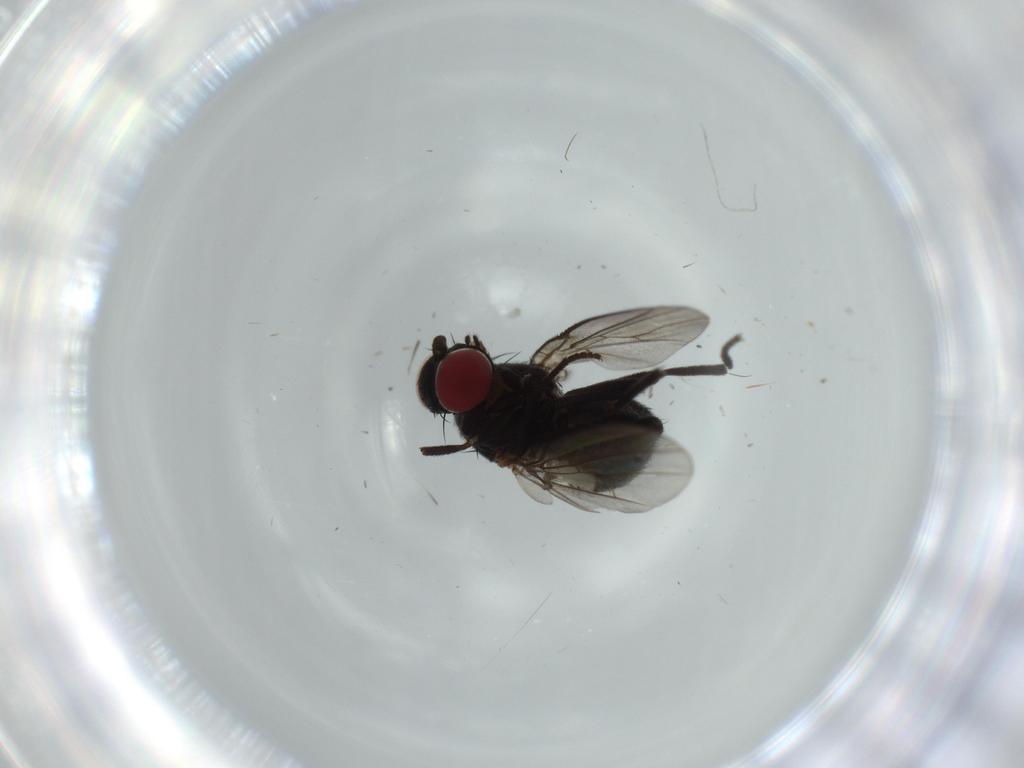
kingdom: Animalia
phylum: Arthropoda
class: Insecta
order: Diptera
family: Agromyzidae
